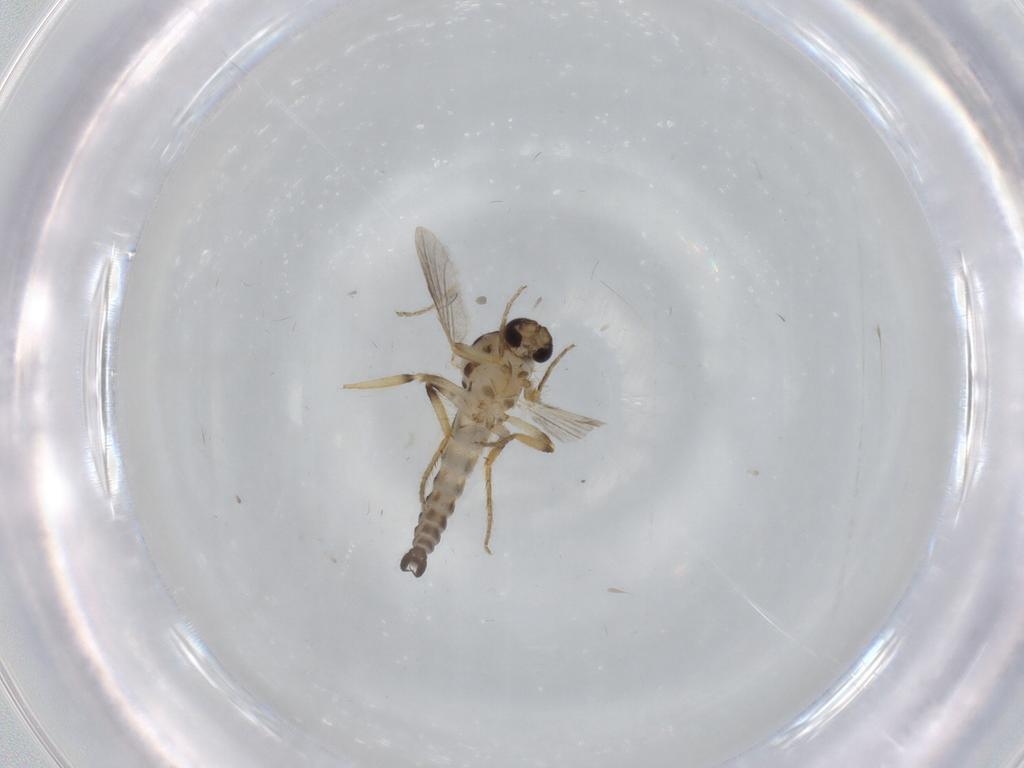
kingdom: Animalia
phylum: Arthropoda
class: Insecta
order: Diptera
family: Ceratopogonidae
